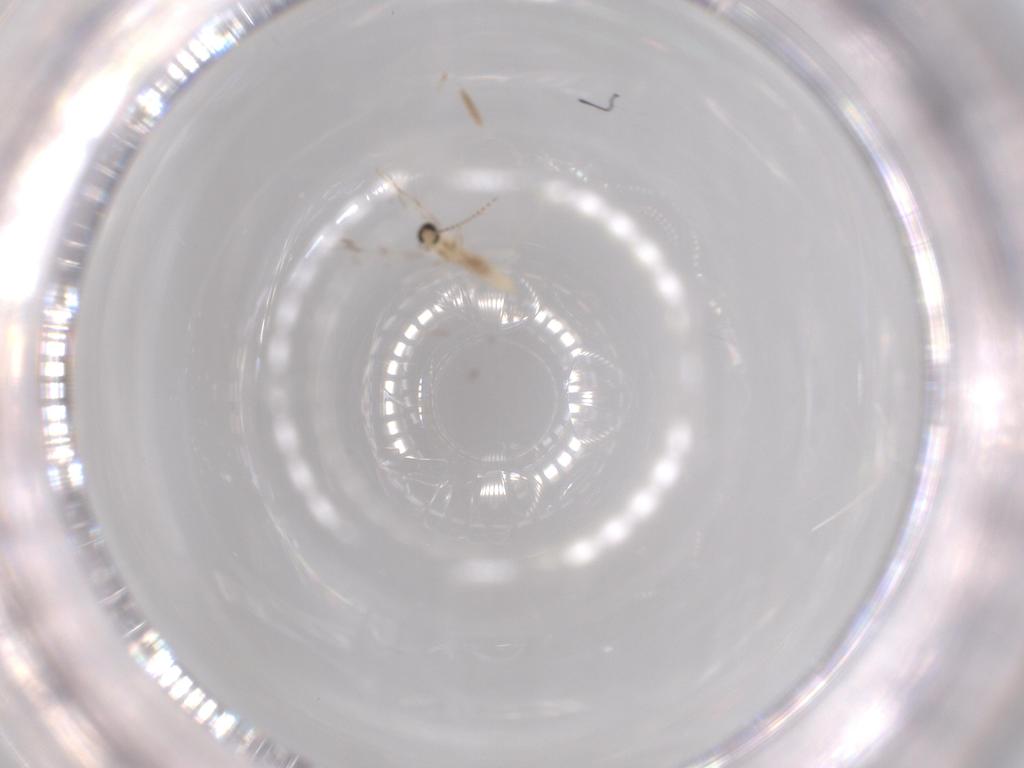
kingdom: Animalia
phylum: Arthropoda
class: Insecta
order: Diptera
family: Cecidomyiidae
